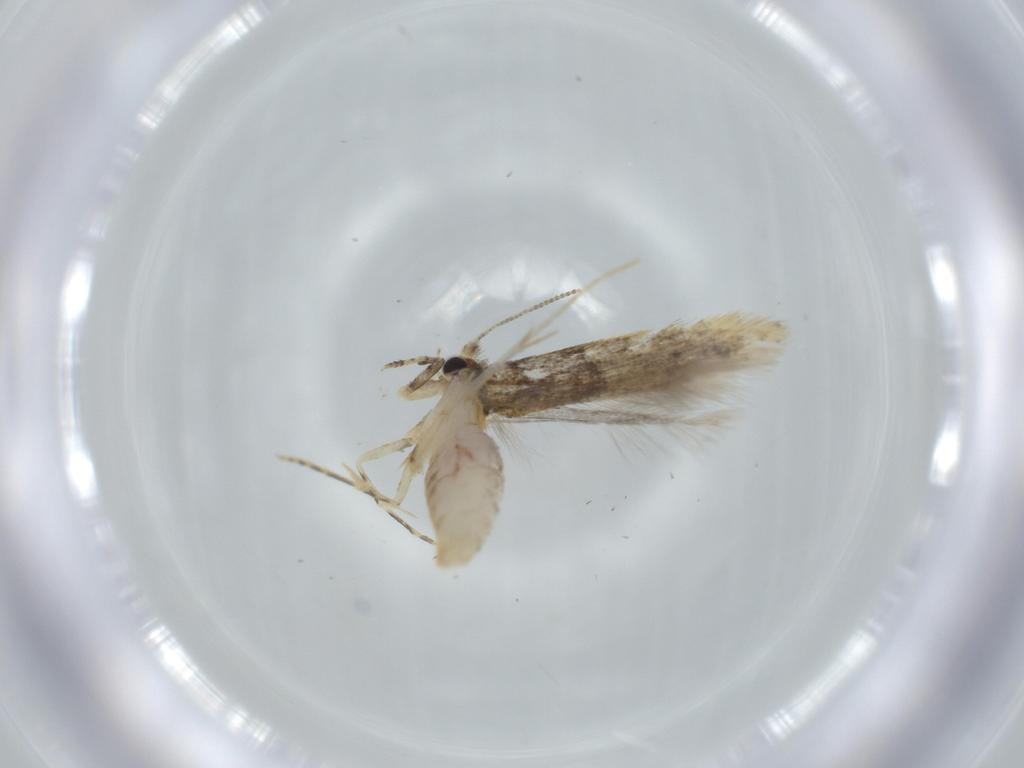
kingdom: Animalia
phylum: Arthropoda
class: Insecta
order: Lepidoptera
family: Tineidae
